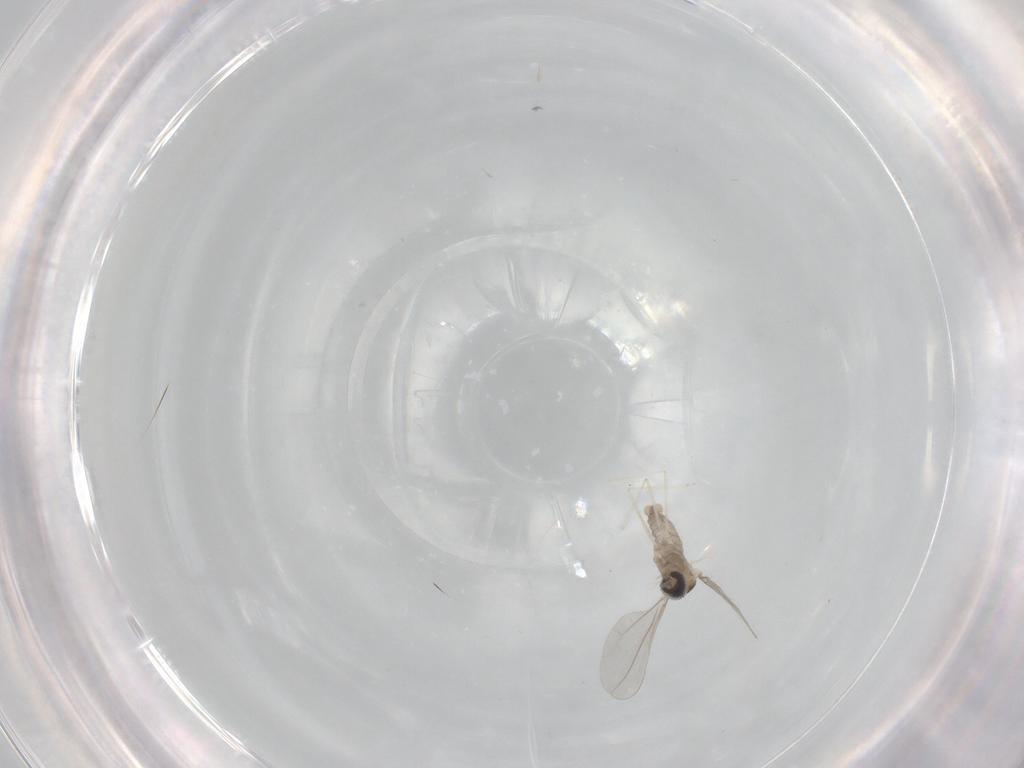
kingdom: Animalia
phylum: Arthropoda
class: Insecta
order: Diptera
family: Cecidomyiidae
